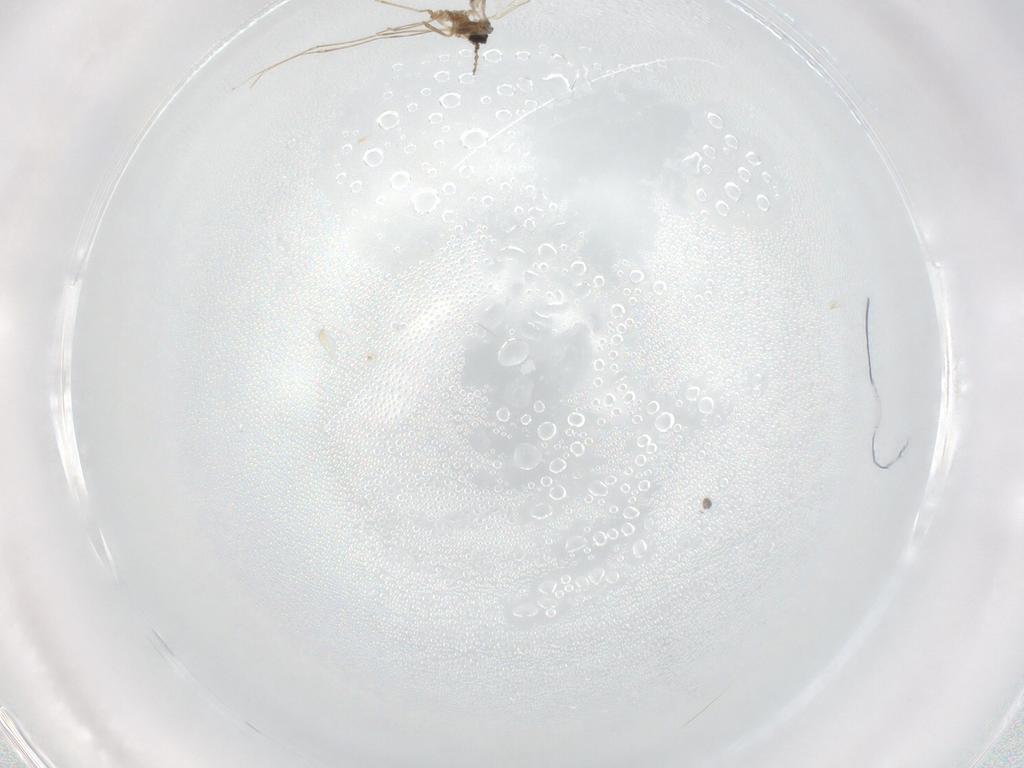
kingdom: Animalia
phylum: Arthropoda
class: Insecta
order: Diptera
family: Cecidomyiidae
